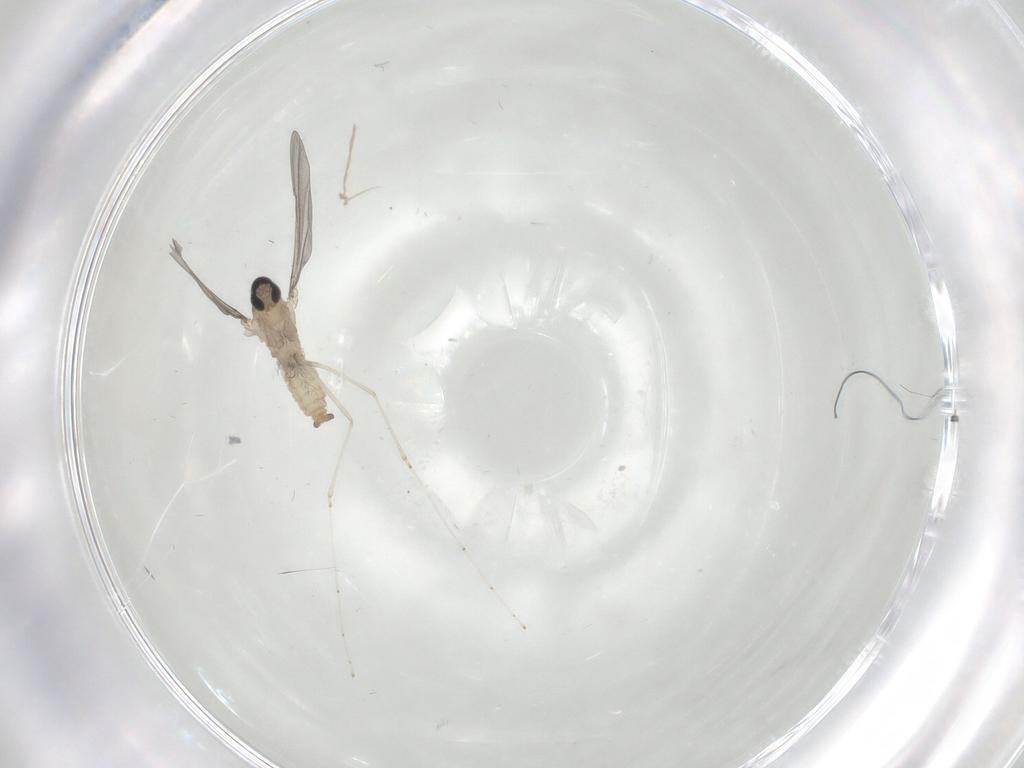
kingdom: Animalia
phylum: Arthropoda
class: Insecta
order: Diptera
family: Cecidomyiidae
